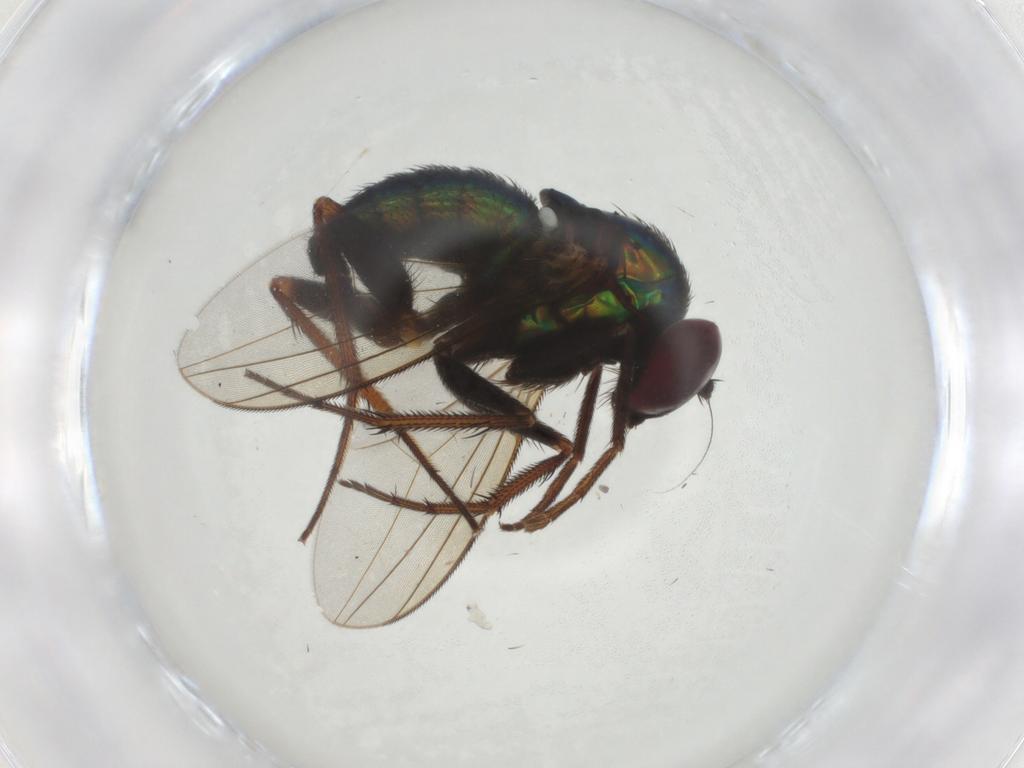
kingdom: Animalia
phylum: Arthropoda
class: Insecta
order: Diptera
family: Dolichopodidae
